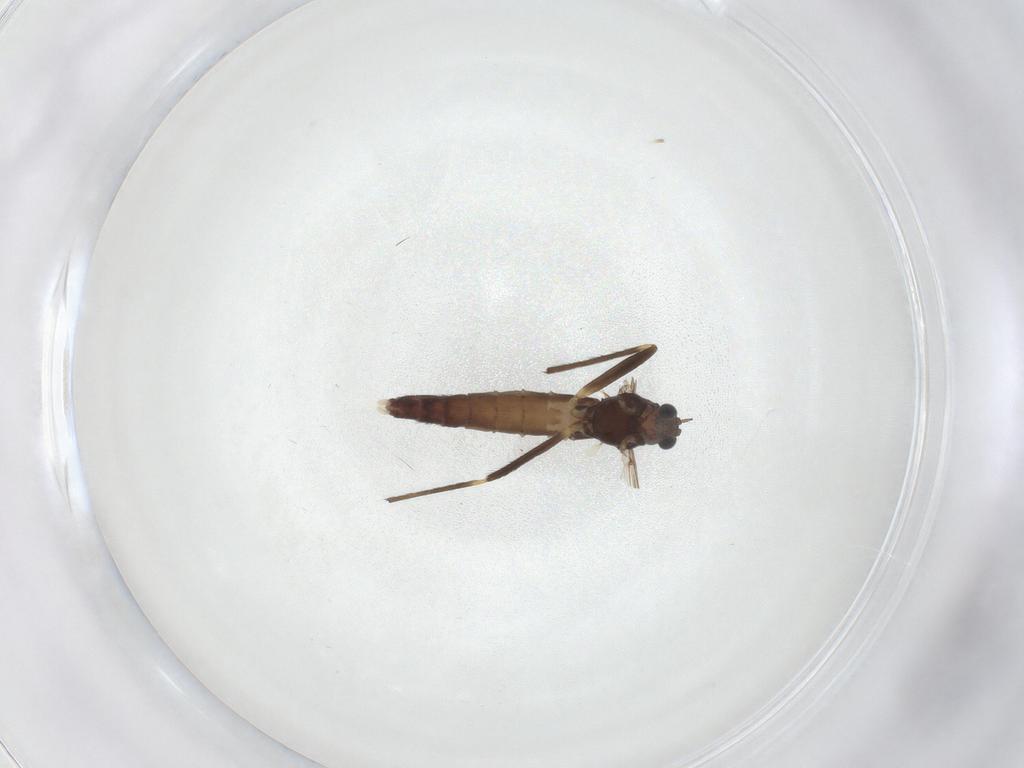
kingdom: Animalia
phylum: Arthropoda
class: Insecta
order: Diptera
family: Chironomidae
